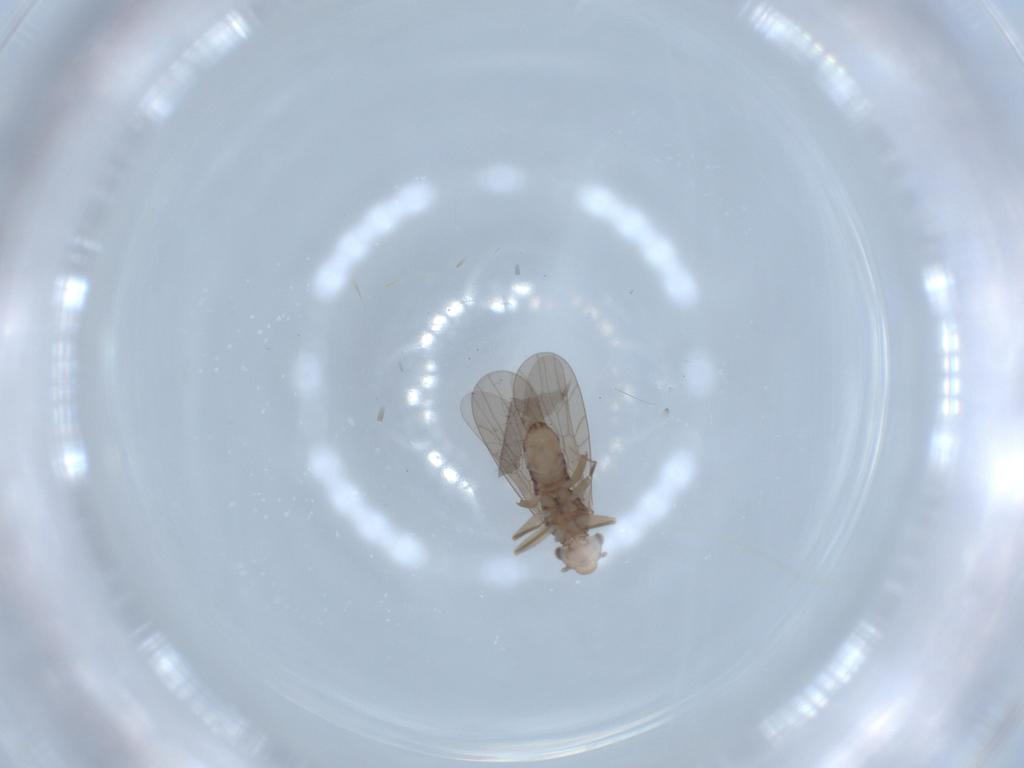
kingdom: Animalia
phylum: Arthropoda
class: Insecta
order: Psocodea
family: Lepidopsocidae
